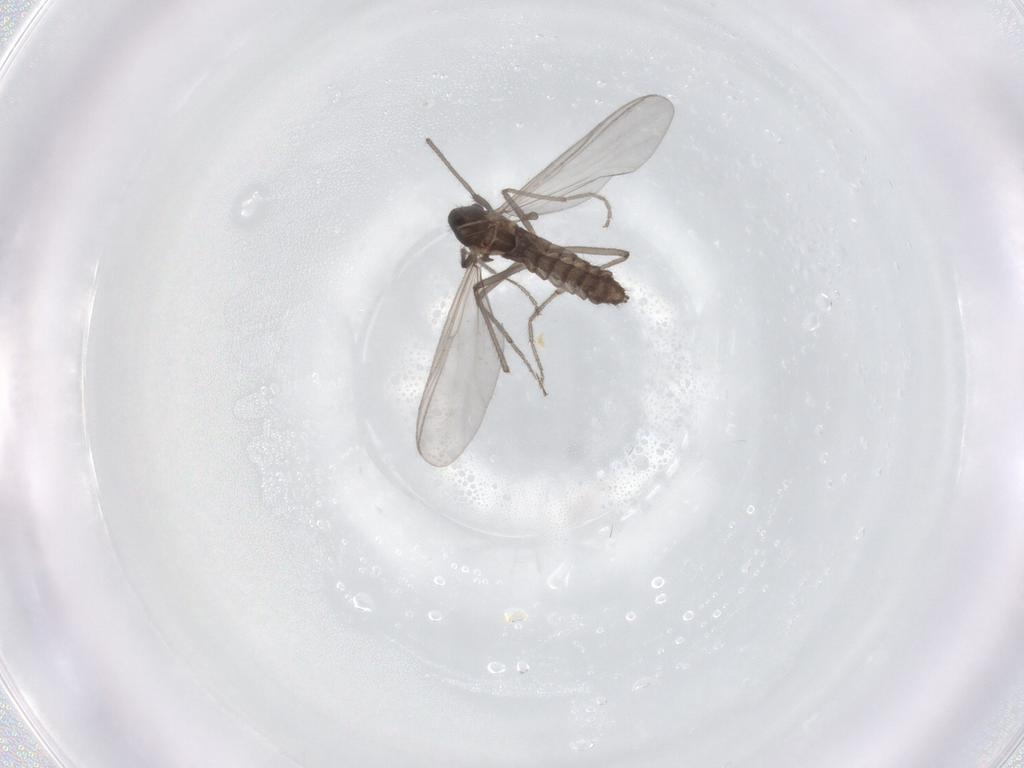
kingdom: Animalia
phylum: Arthropoda
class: Insecta
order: Diptera
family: Chironomidae
